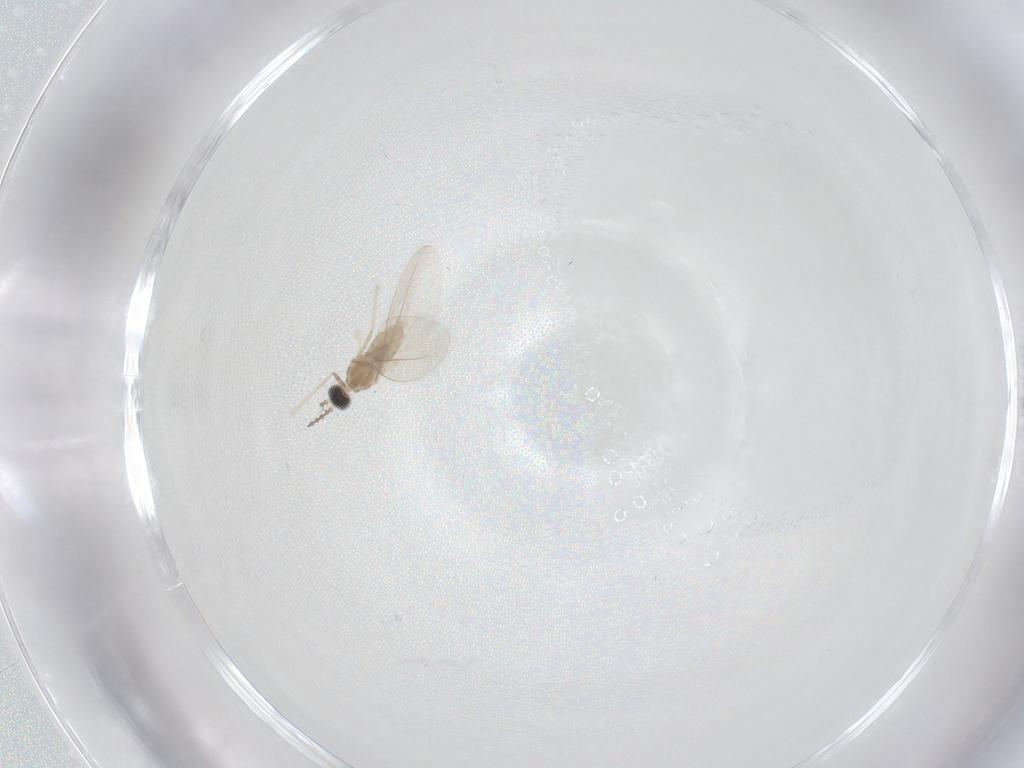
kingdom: Animalia
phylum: Arthropoda
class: Insecta
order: Diptera
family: Cecidomyiidae
